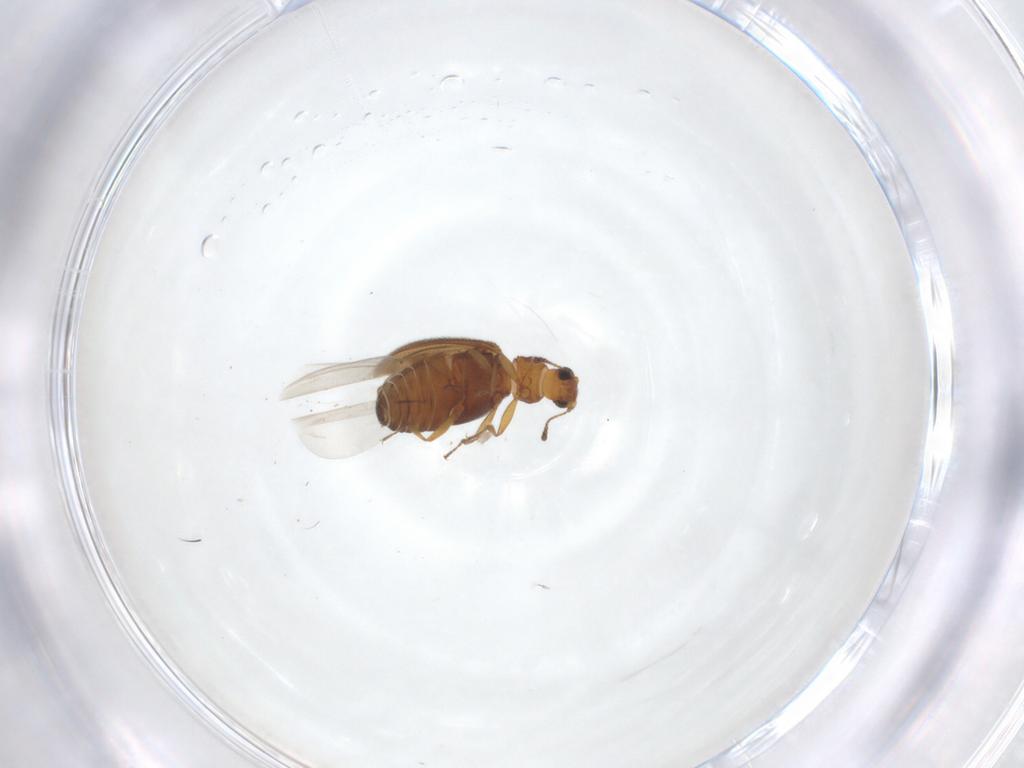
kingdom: Animalia
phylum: Arthropoda
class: Insecta
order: Coleoptera
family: Latridiidae
